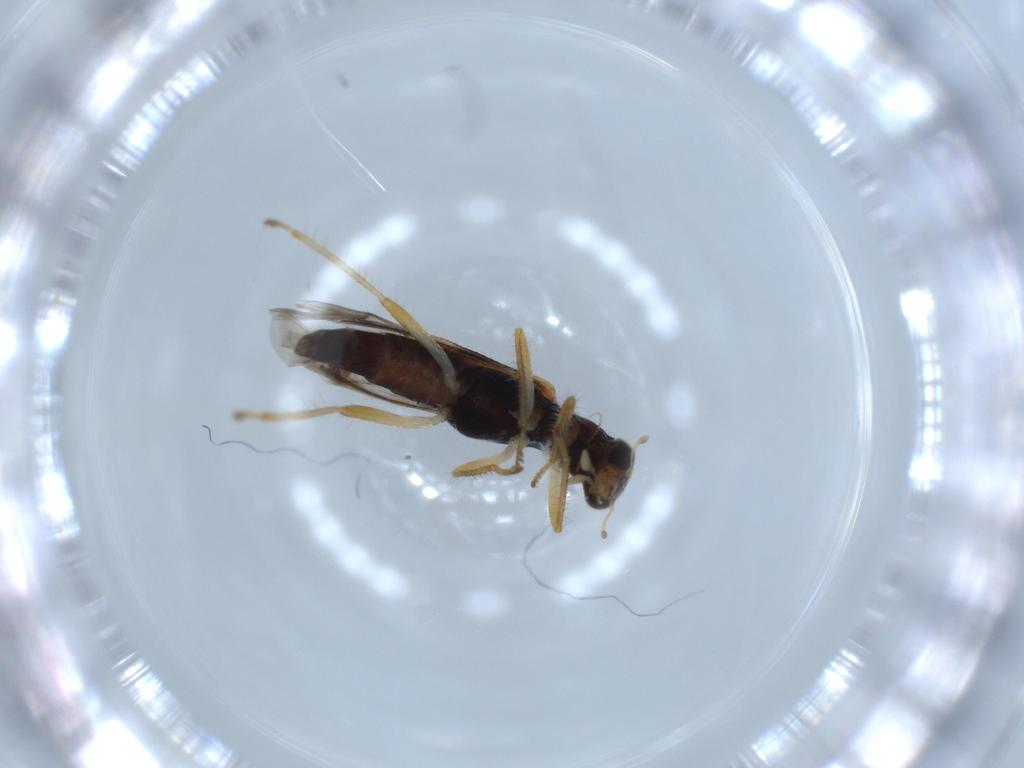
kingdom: Animalia
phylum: Arthropoda
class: Insecta
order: Coleoptera
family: Cleridae
